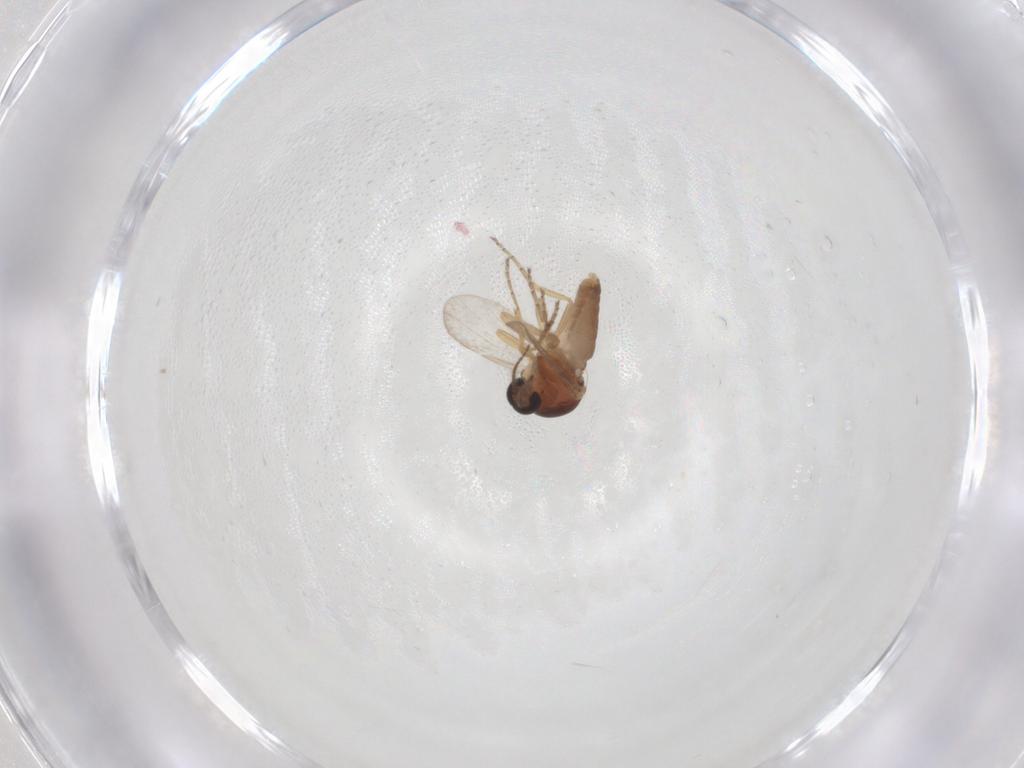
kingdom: Animalia
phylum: Arthropoda
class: Insecta
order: Diptera
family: Ceratopogonidae
